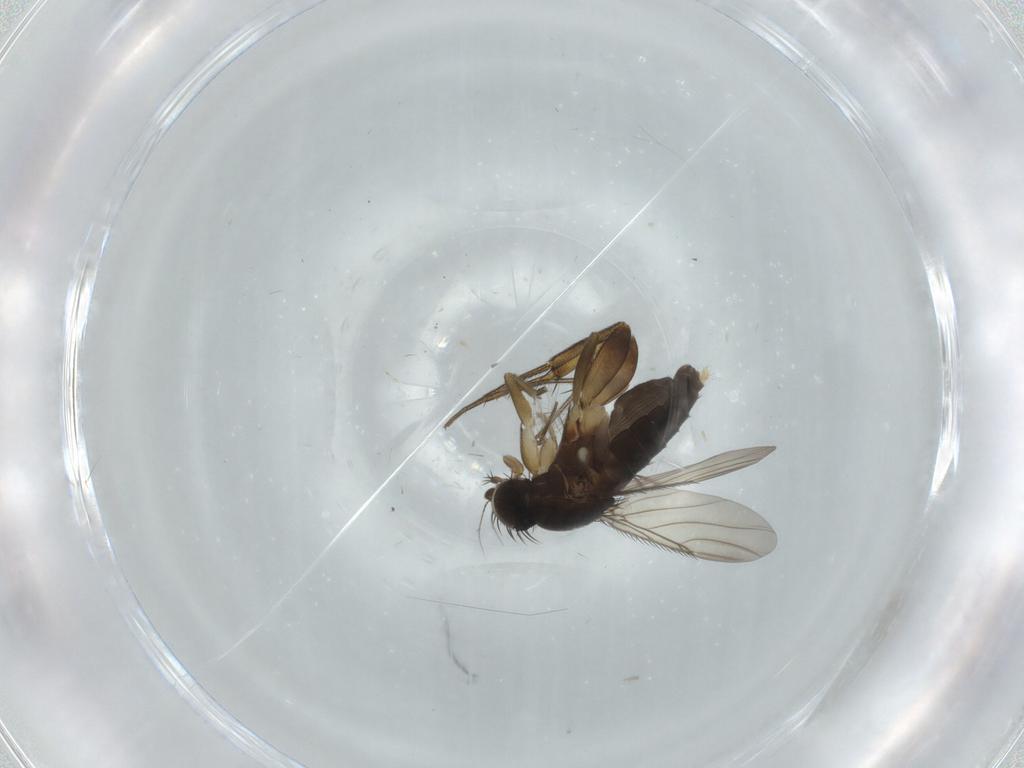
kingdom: Animalia
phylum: Arthropoda
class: Insecta
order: Diptera
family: Phoridae
